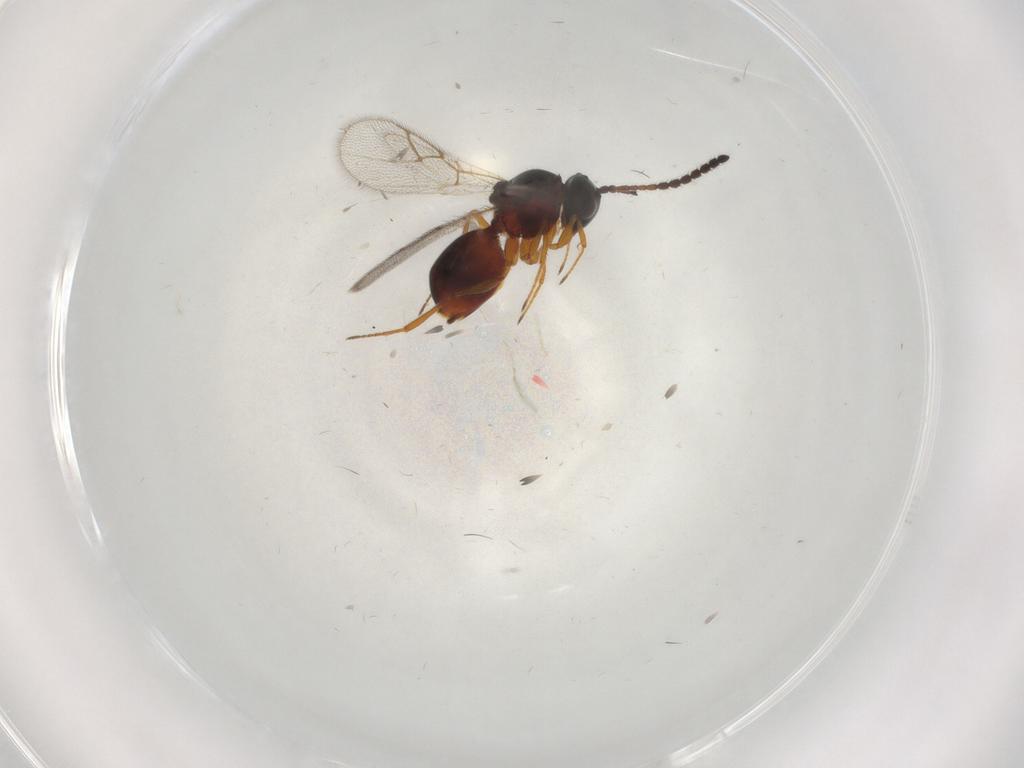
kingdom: Animalia
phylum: Arthropoda
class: Insecta
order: Hymenoptera
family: Figitidae
